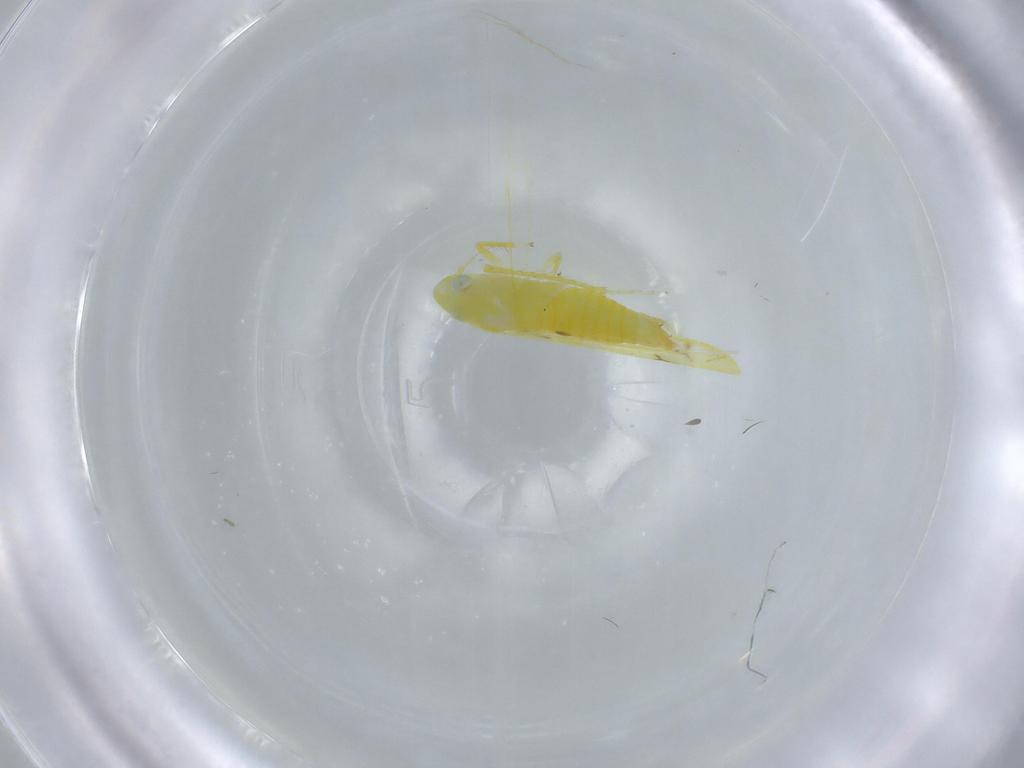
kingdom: Animalia
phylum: Arthropoda
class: Insecta
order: Hemiptera
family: Cicadellidae
